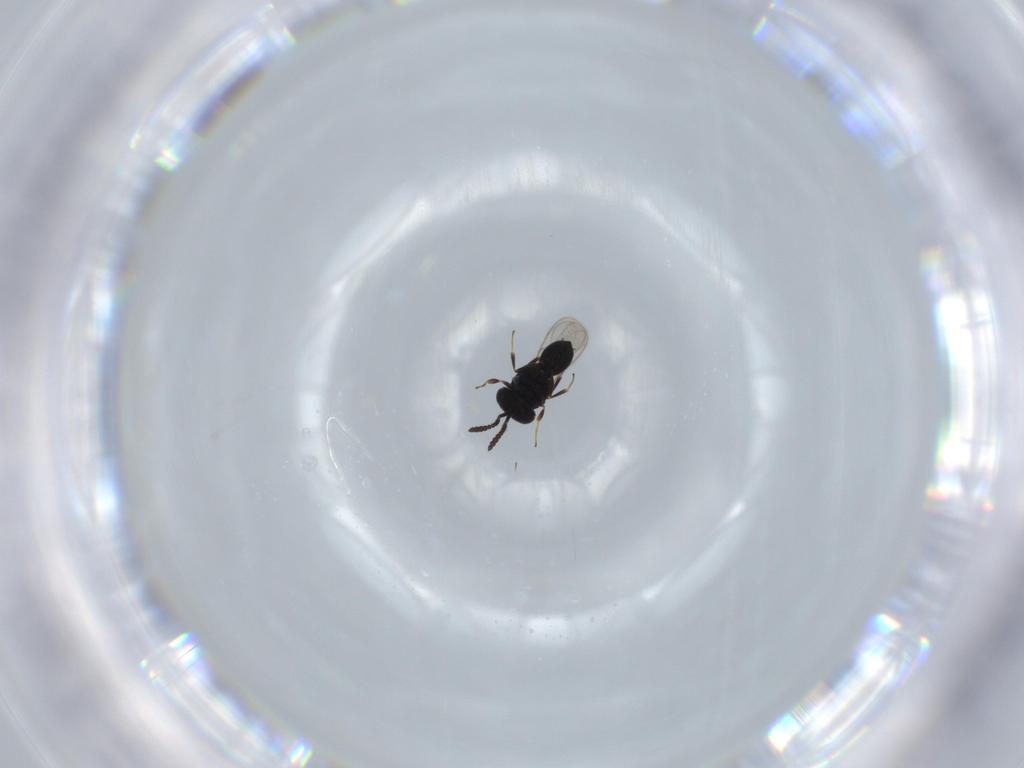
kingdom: Animalia
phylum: Arthropoda
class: Insecta
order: Hymenoptera
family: Scelionidae
